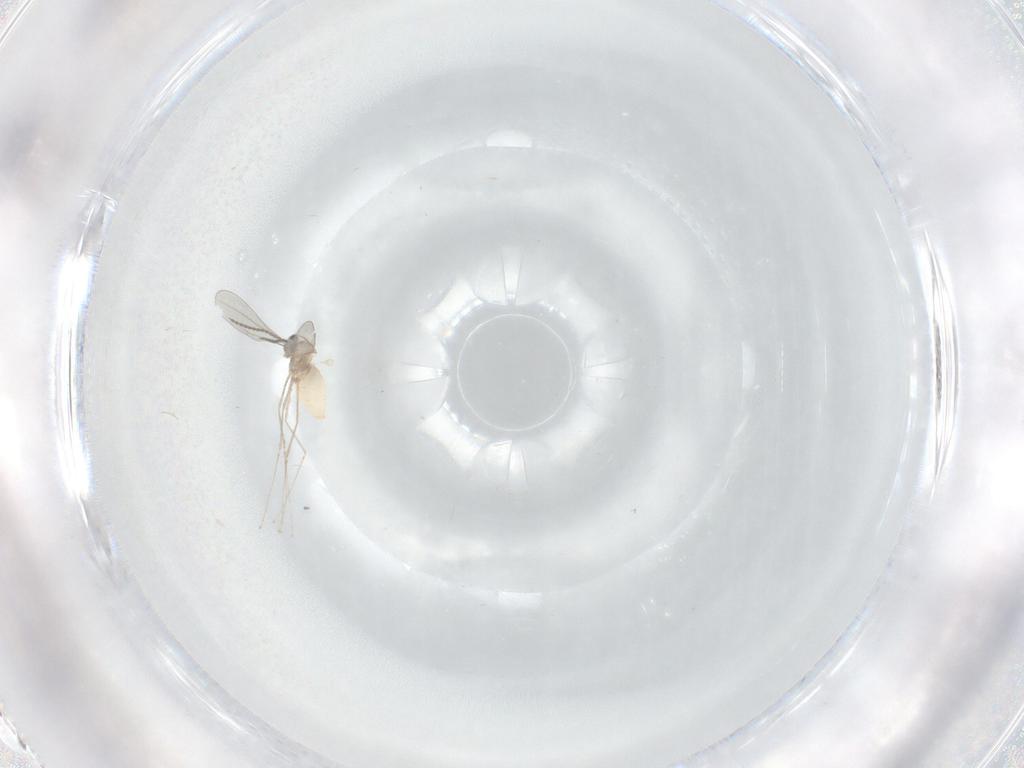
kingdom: Animalia
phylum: Arthropoda
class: Insecta
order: Diptera
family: Cecidomyiidae
